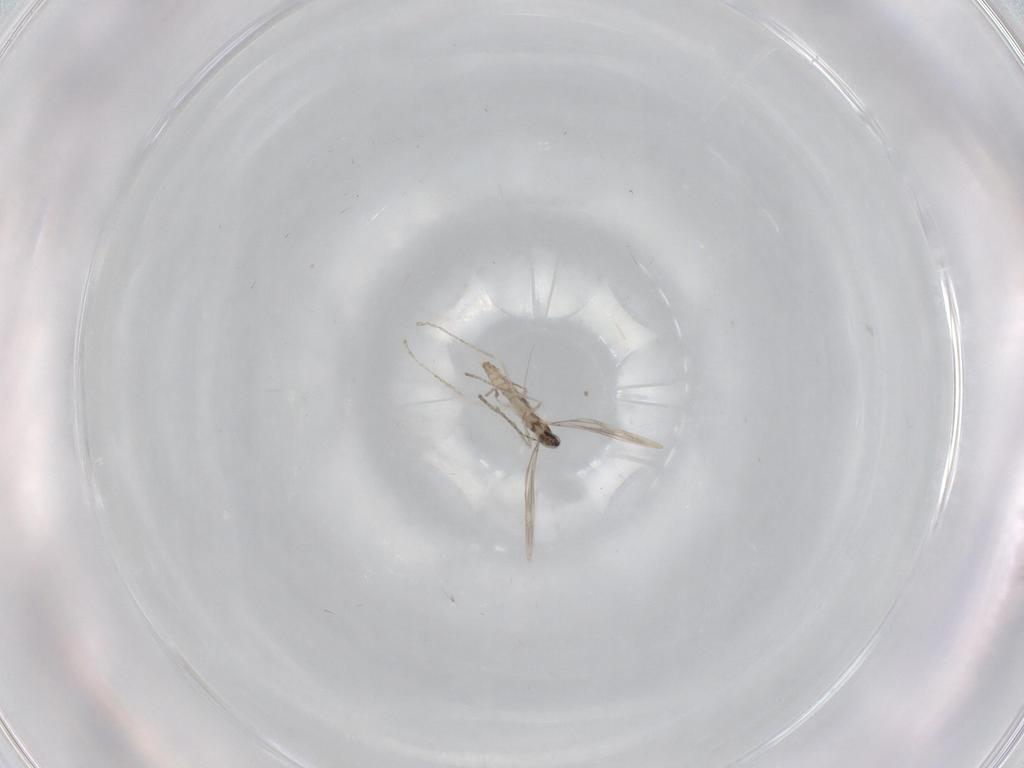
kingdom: Animalia
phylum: Arthropoda
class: Insecta
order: Diptera
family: Cecidomyiidae
